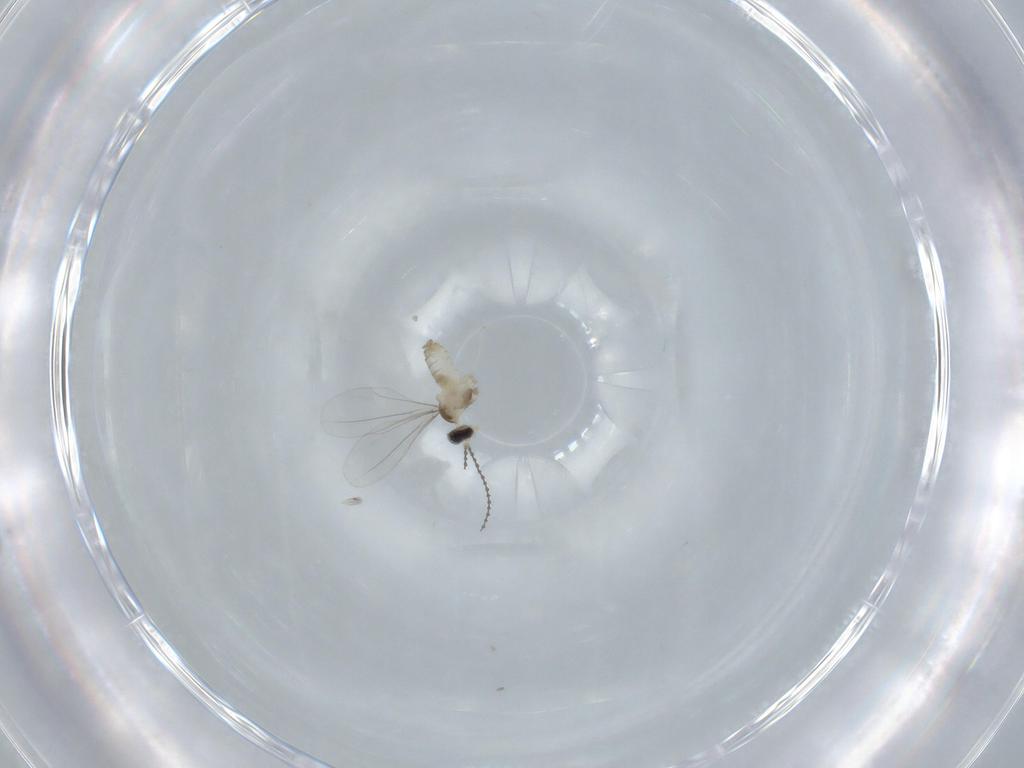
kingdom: Animalia
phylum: Arthropoda
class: Insecta
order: Diptera
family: Cecidomyiidae
